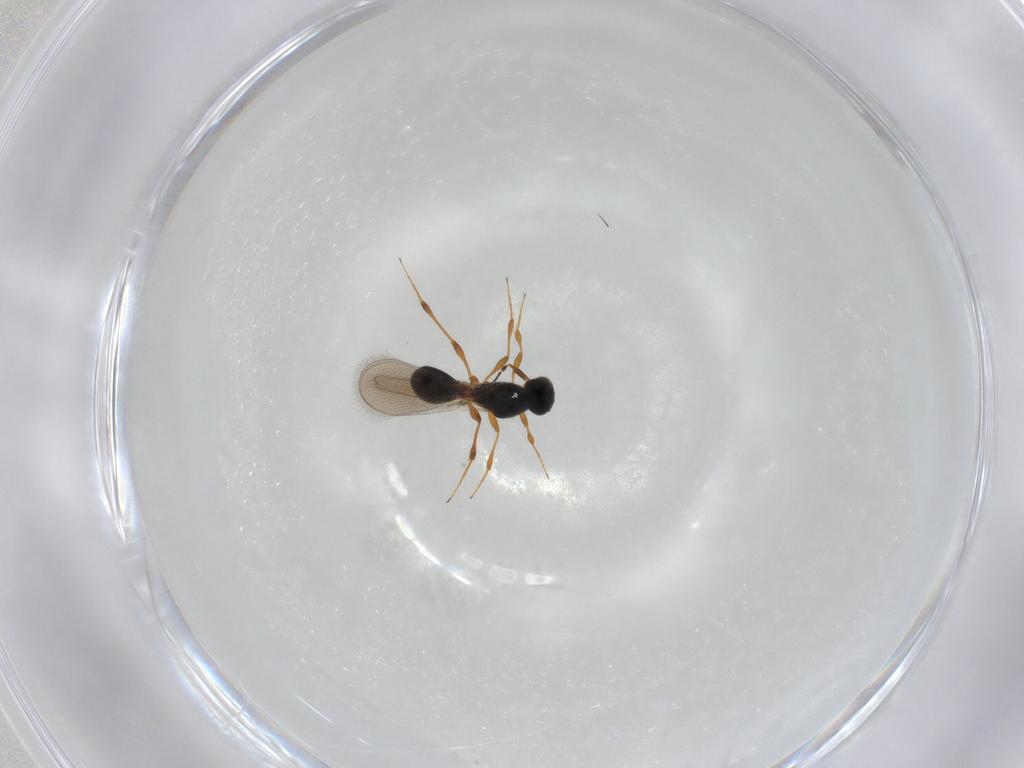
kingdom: Animalia
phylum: Arthropoda
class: Insecta
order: Hymenoptera
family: Platygastridae
